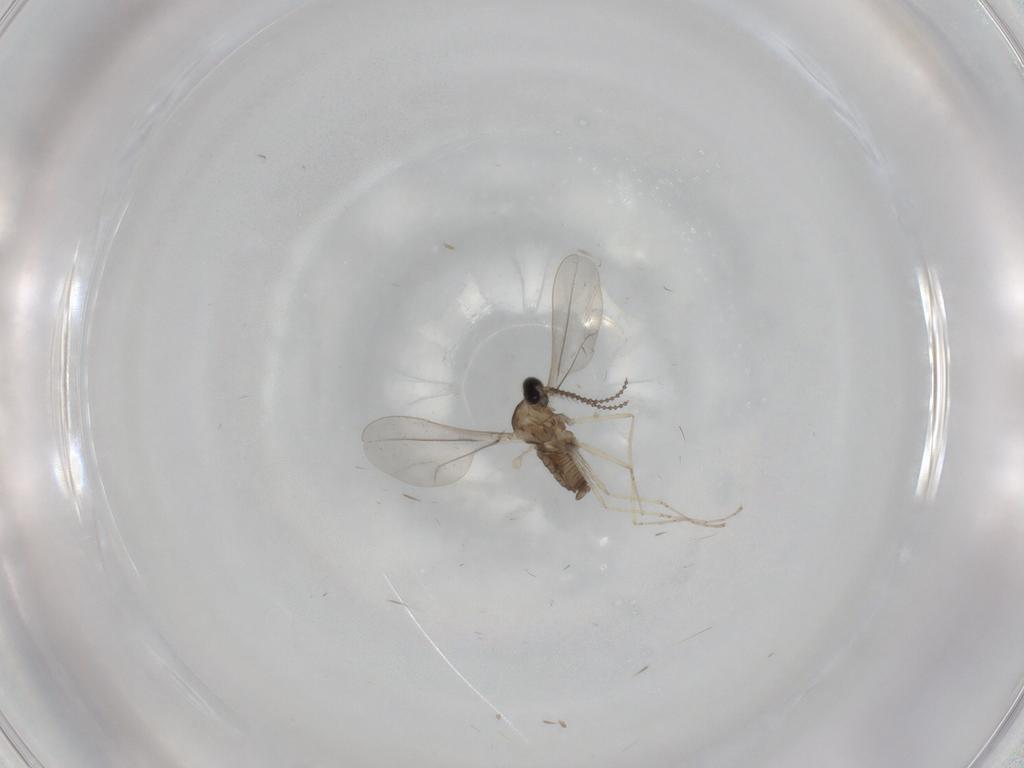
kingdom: Animalia
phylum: Arthropoda
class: Insecta
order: Diptera
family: Cecidomyiidae
